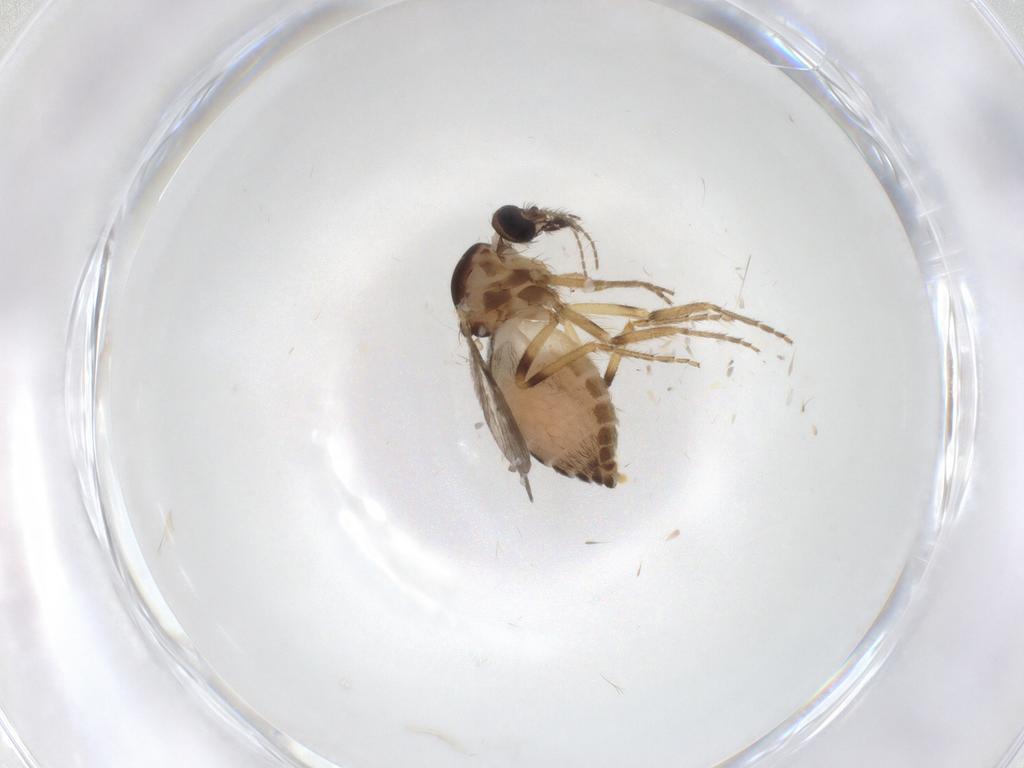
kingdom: Animalia
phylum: Arthropoda
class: Insecta
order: Diptera
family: Ceratopogonidae
